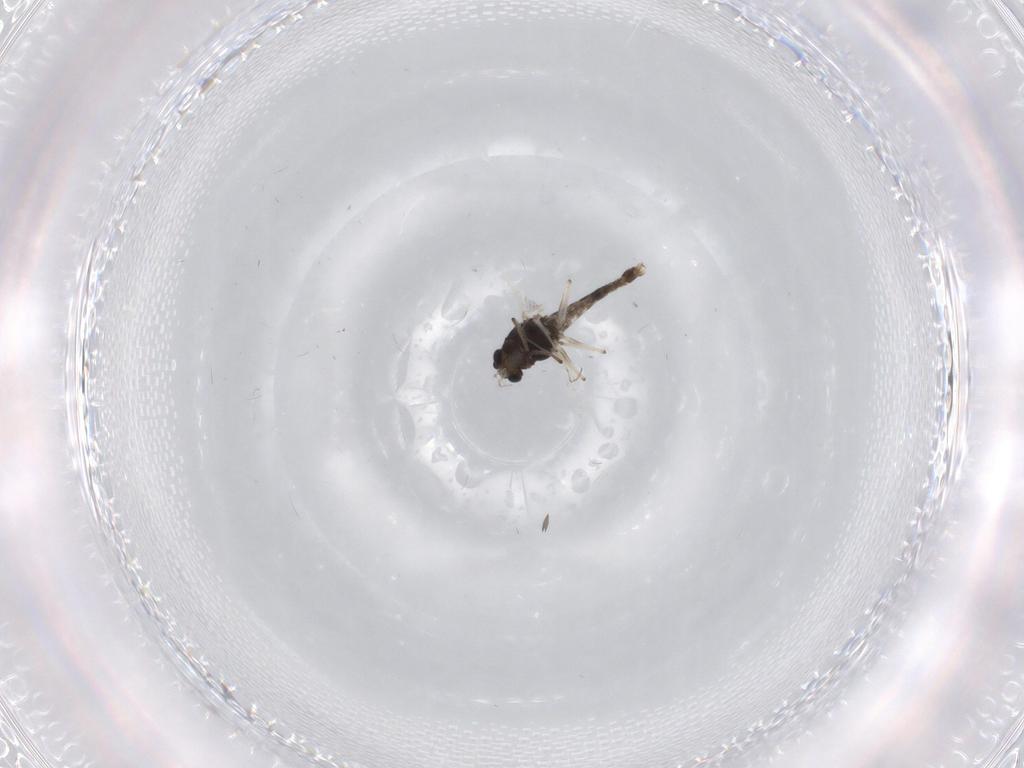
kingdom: Animalia
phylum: Arthropoda
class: Insecta
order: Diptera
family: Chironomidae
